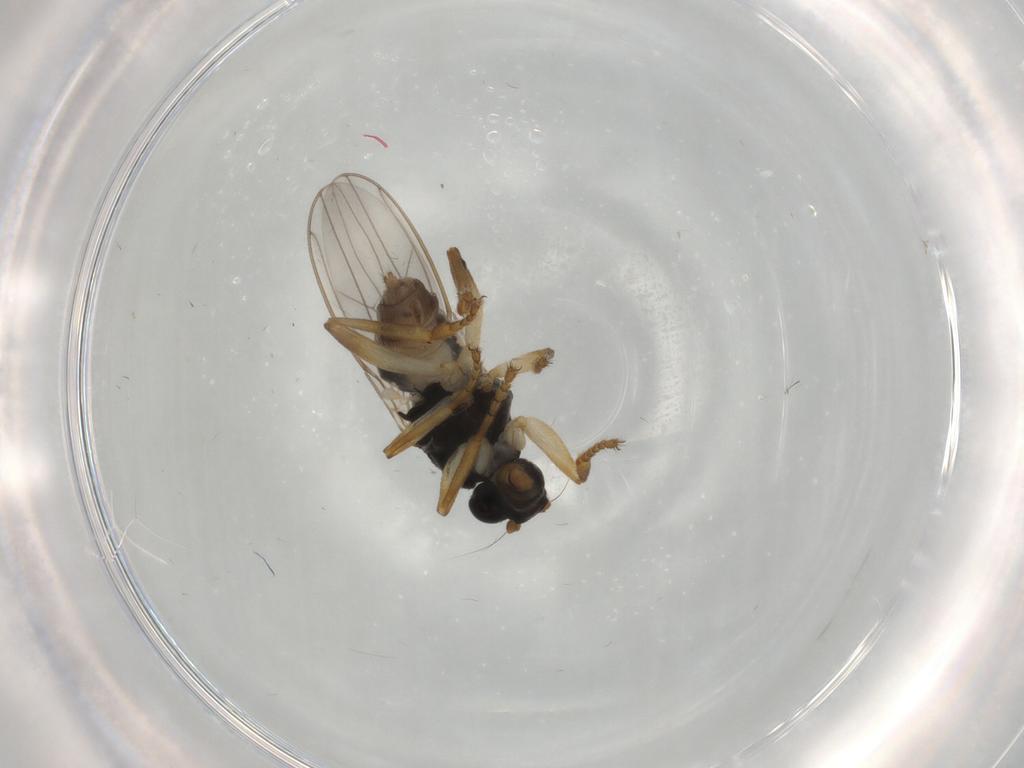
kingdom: Animalia
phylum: Arthropoda
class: Insecta
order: Diptera
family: Sphaeroceridae
